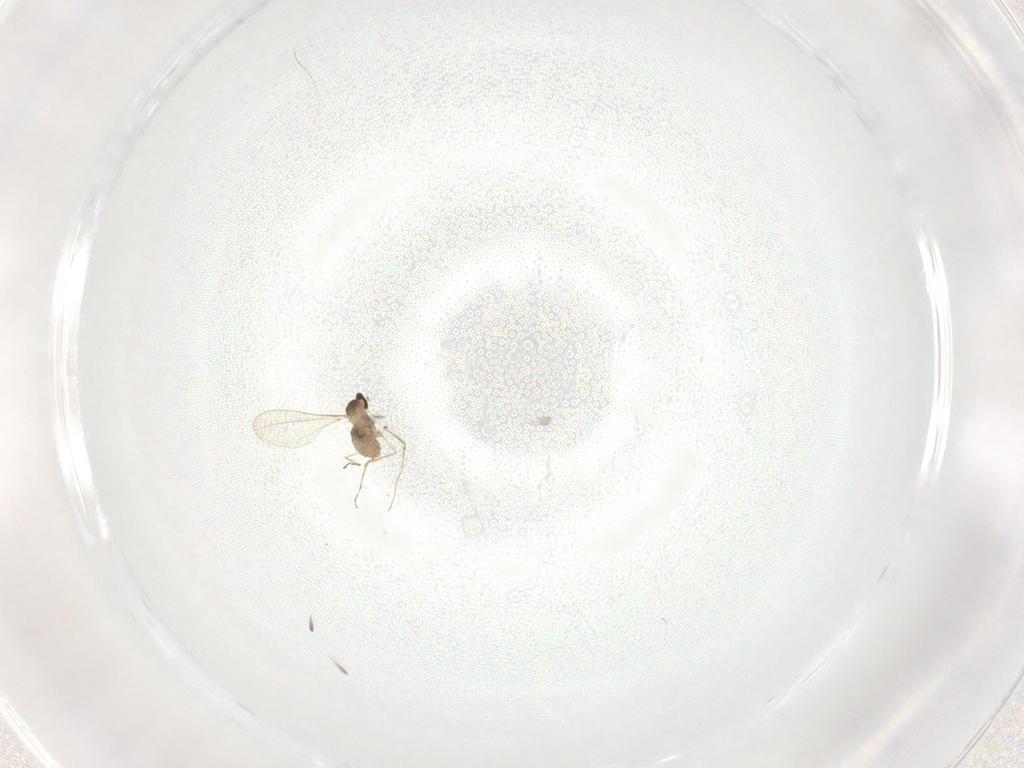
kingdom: Animalia
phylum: Arthropoda
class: Insecta
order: Diptera
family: Cecidomyiidae
